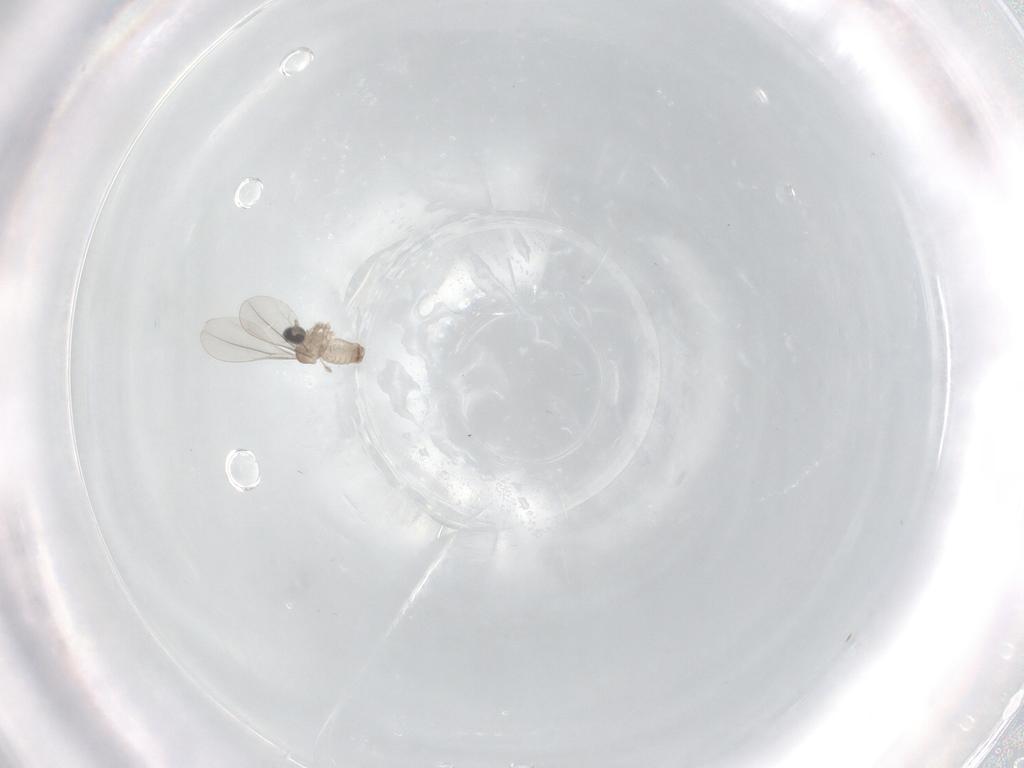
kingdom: Animalia
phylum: Arthropoda
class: Insecta
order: Diptera
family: Cecidomyiidae
